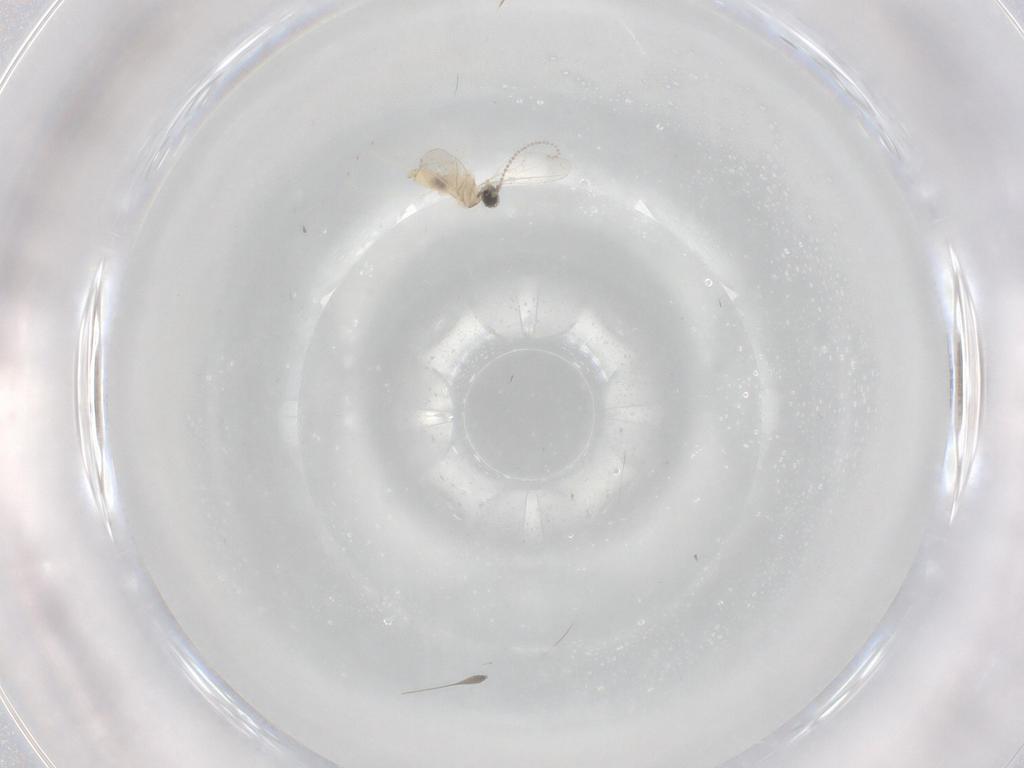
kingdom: Animalia
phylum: Arthropoda
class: Insecta
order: Diptera
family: Cecidomyiidae
